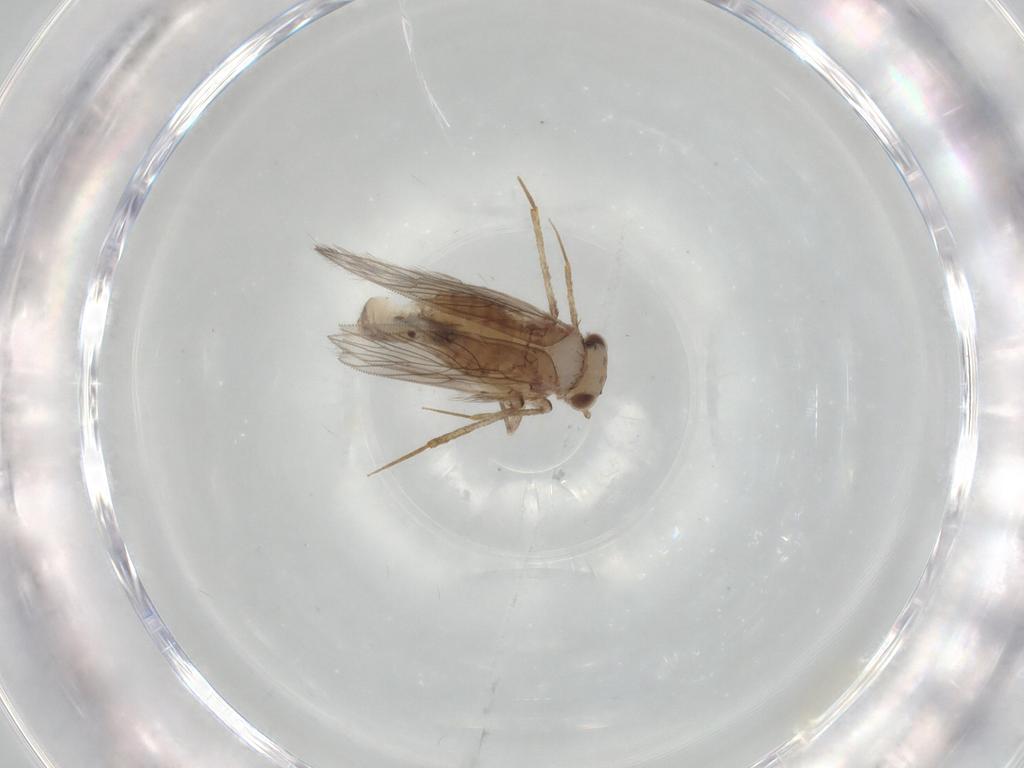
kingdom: Animalia
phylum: Arthropoda
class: Insecta
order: Psocodea
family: Lepidopsocidae
